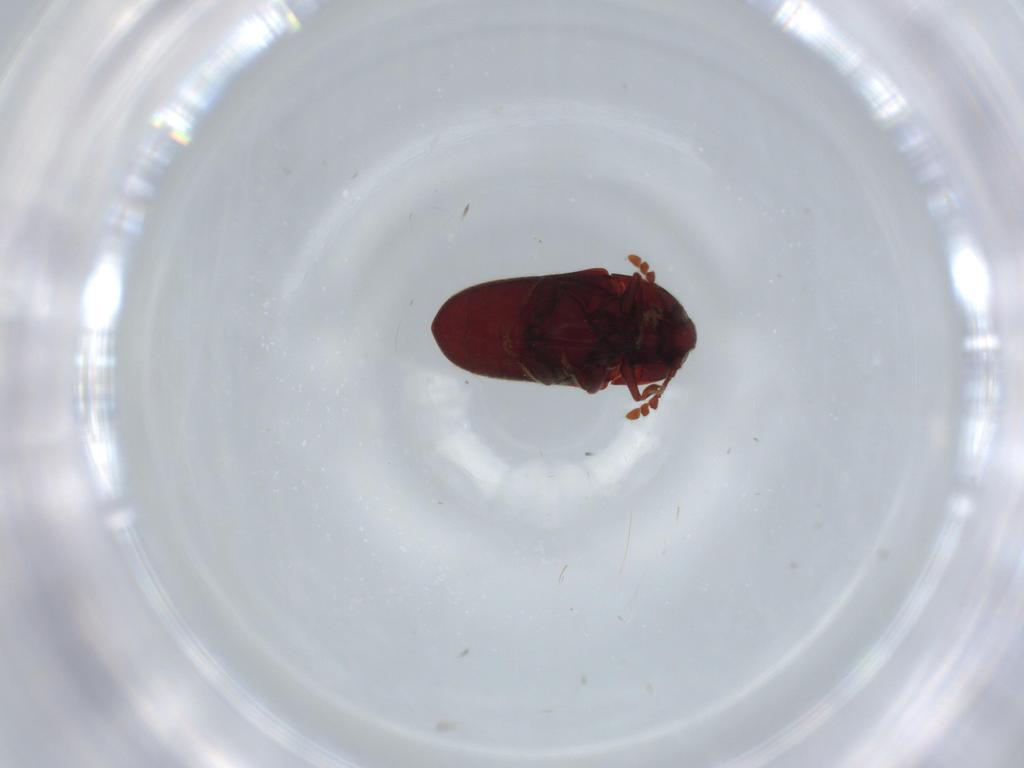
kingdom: Animalia
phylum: Arthropoda
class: Insecta
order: Coleoptera
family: Throscidae
